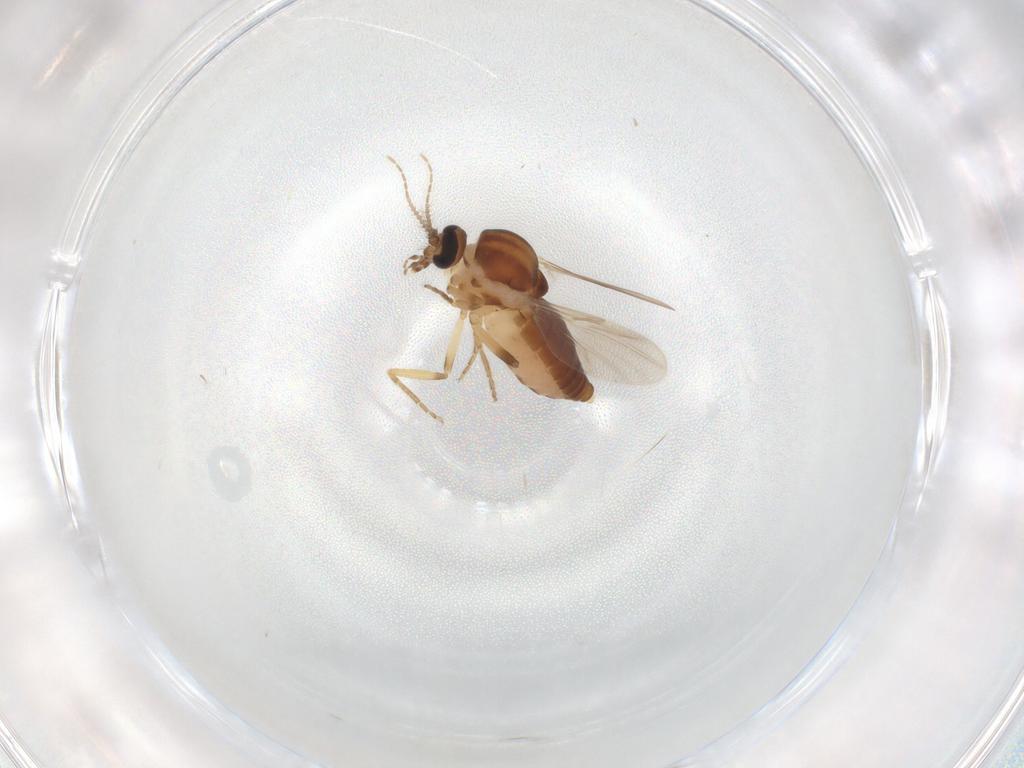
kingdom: Animalia
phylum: Arthropoda
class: Insecta
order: Diptera
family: Ceratopogonidae
